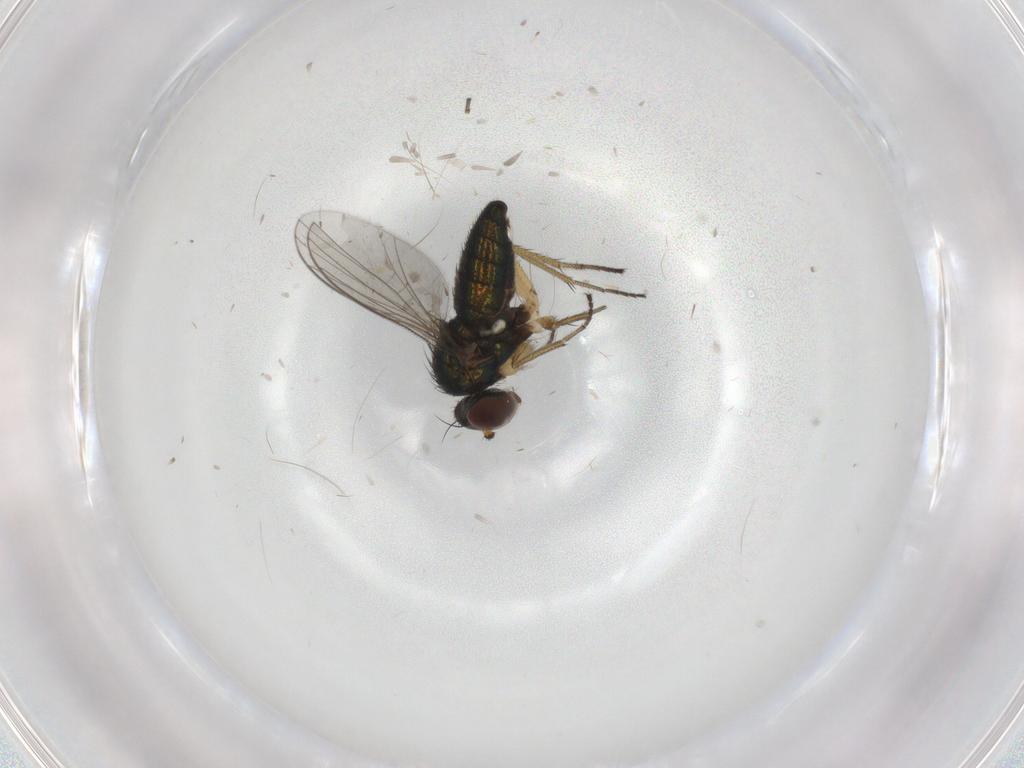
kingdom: Animalia
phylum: Arthropoda
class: Insecta
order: Diptera
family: Dolichopodidae
